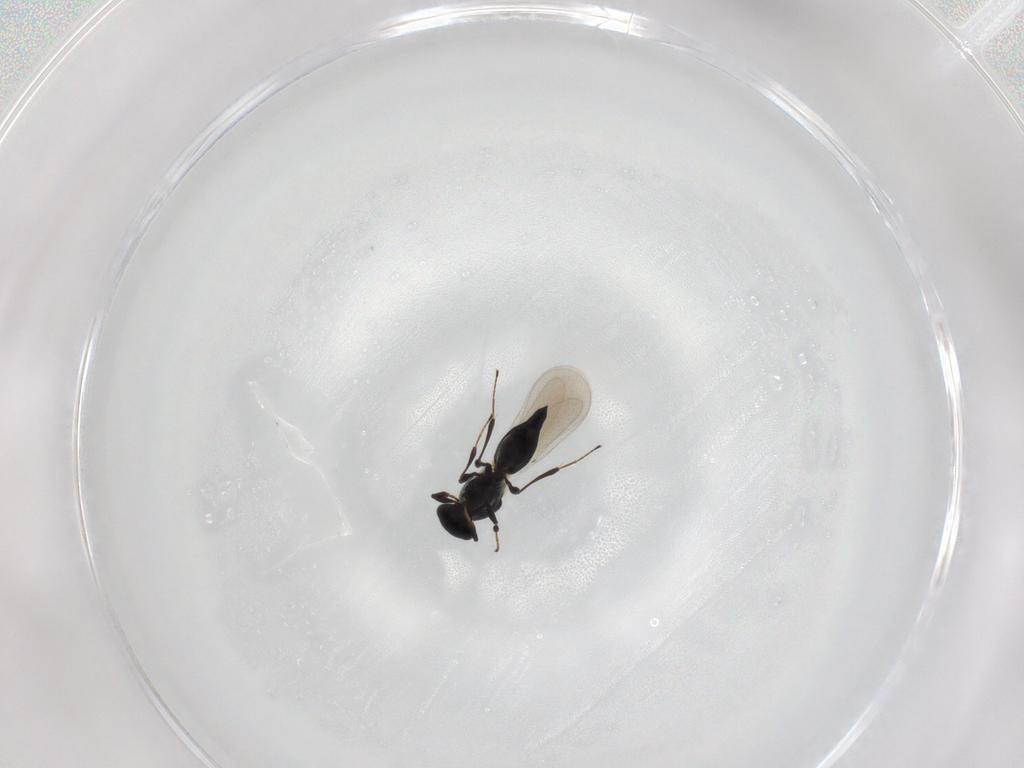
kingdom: Animalia
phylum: Arthropoda
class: Insecta
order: Hymenoptera
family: Platygastridae
